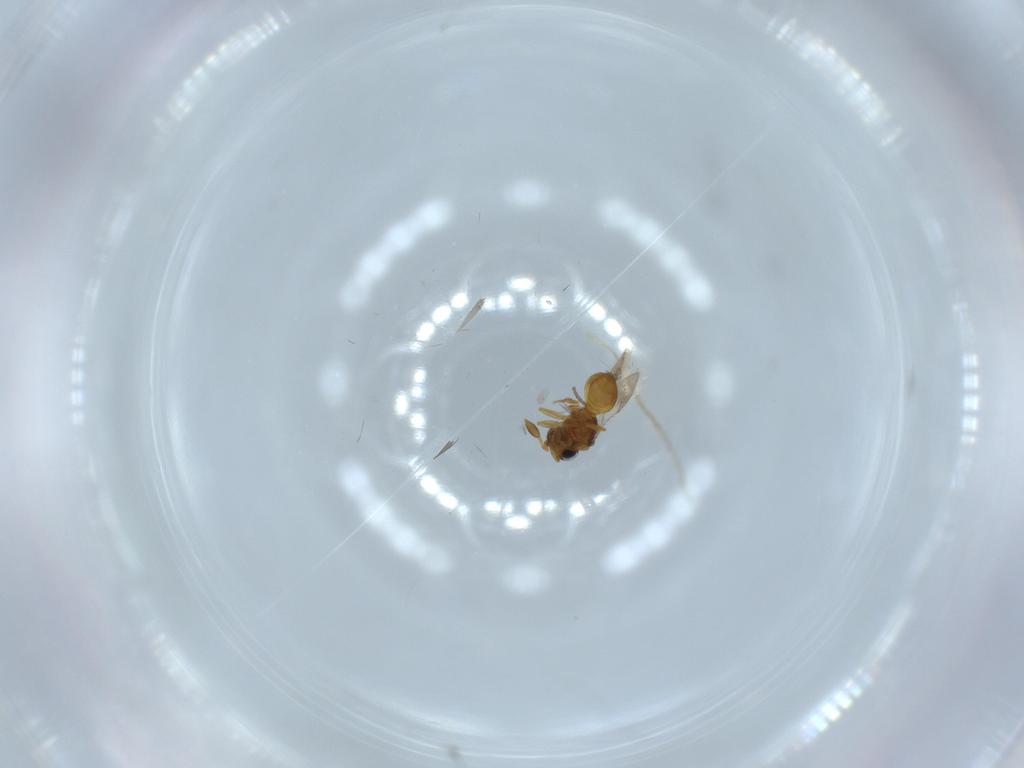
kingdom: Animalia
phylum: Arthropoda
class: Insecta
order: Hymenoptera
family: Scelionidae
